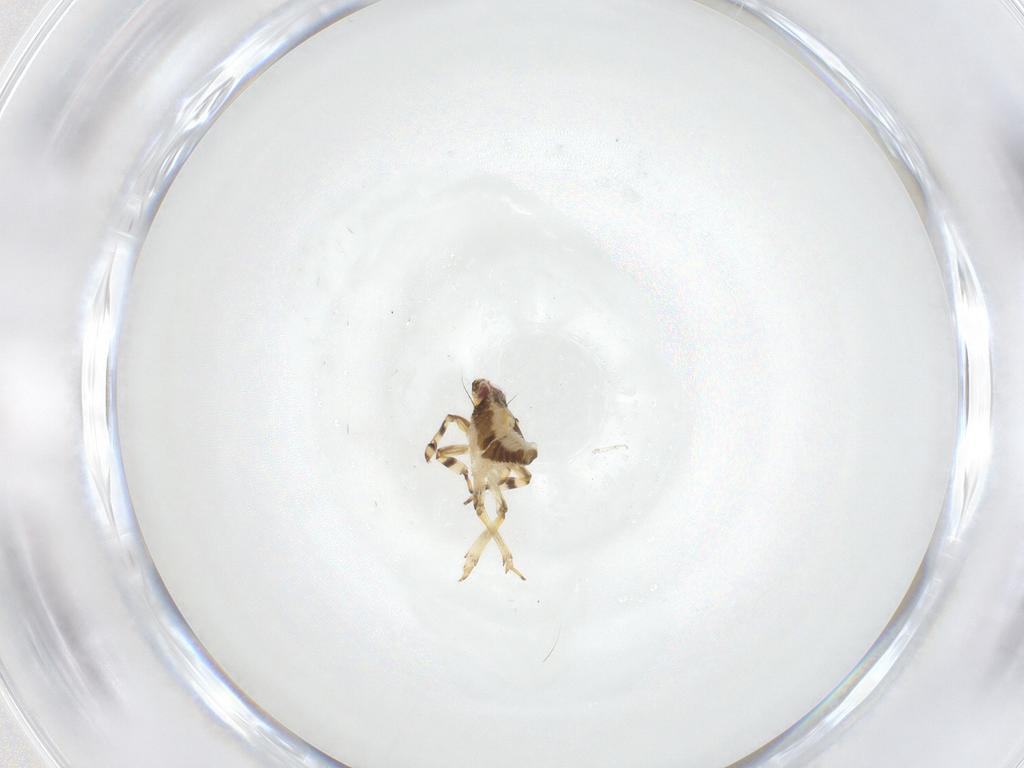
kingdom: Animalia
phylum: Arthropoda
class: Insecta
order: Hemiptera
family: Issidae
